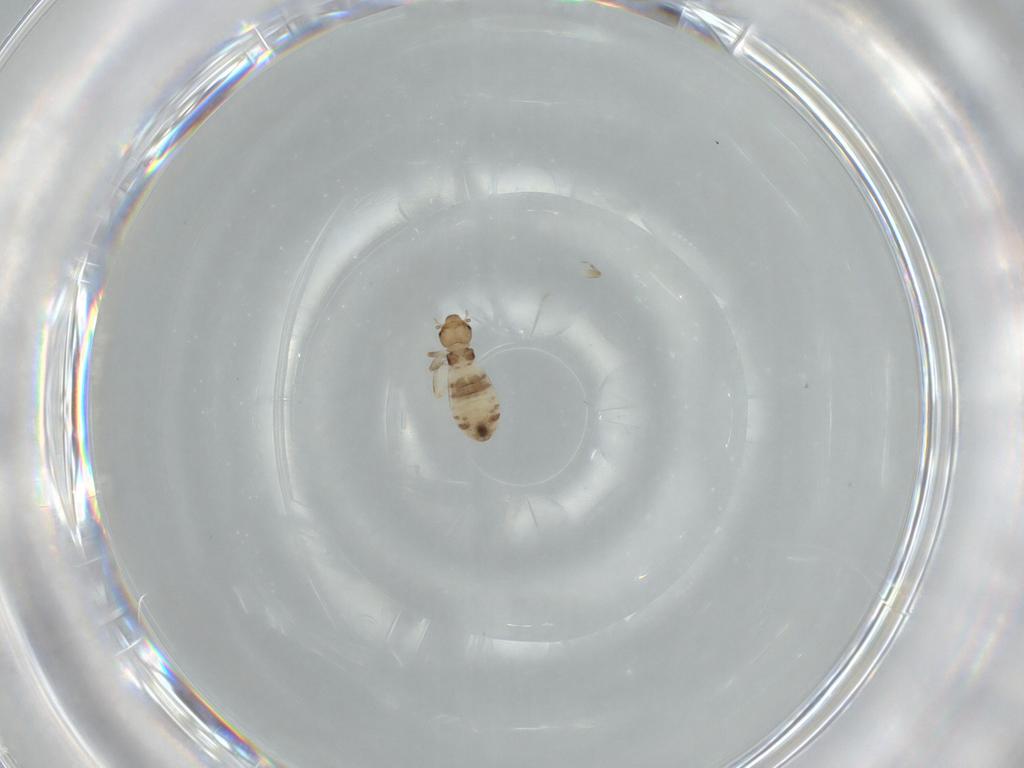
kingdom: Animalia
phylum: Arthropoda
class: Insecta
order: Psocodea
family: Liposcelididae
